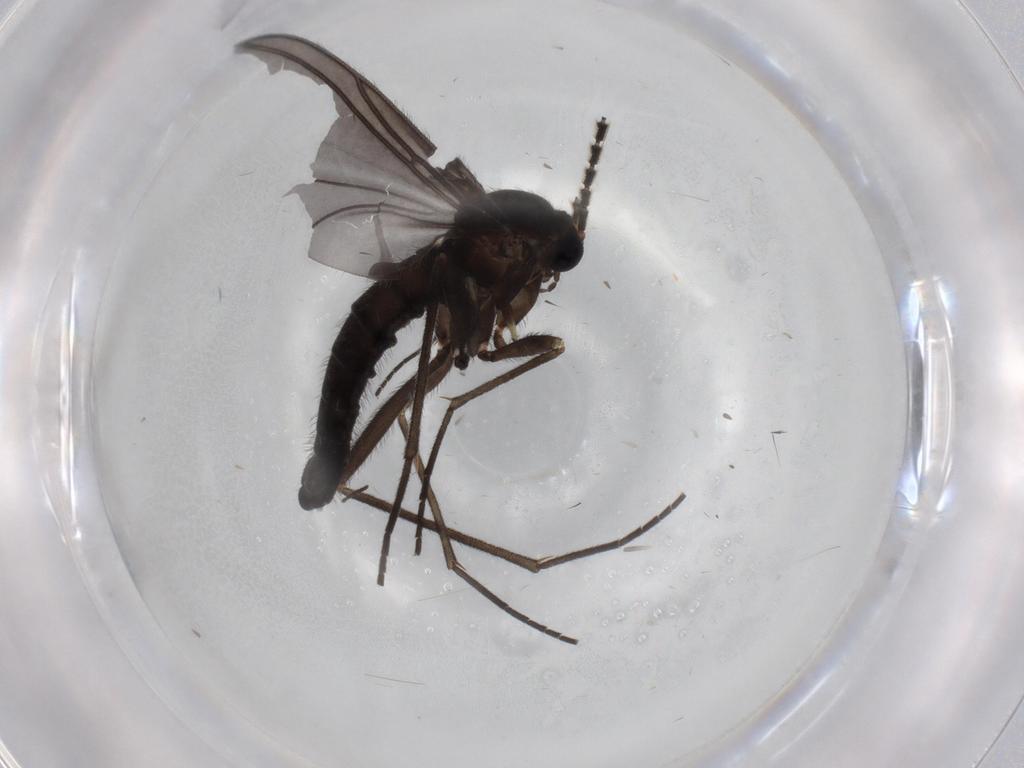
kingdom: Animalia
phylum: Arthropoda
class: Insecta
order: Diptera
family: Sciaridae
